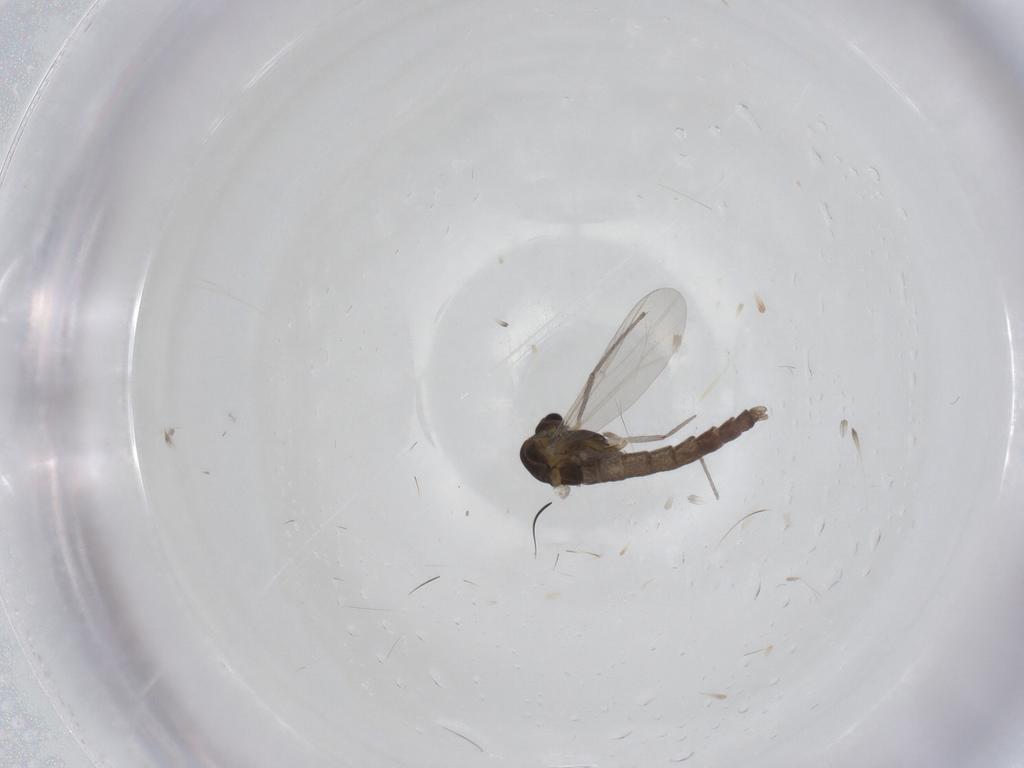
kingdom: Animalia
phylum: Arthropoda
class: Insecta
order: Diptera
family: Chironomidae
